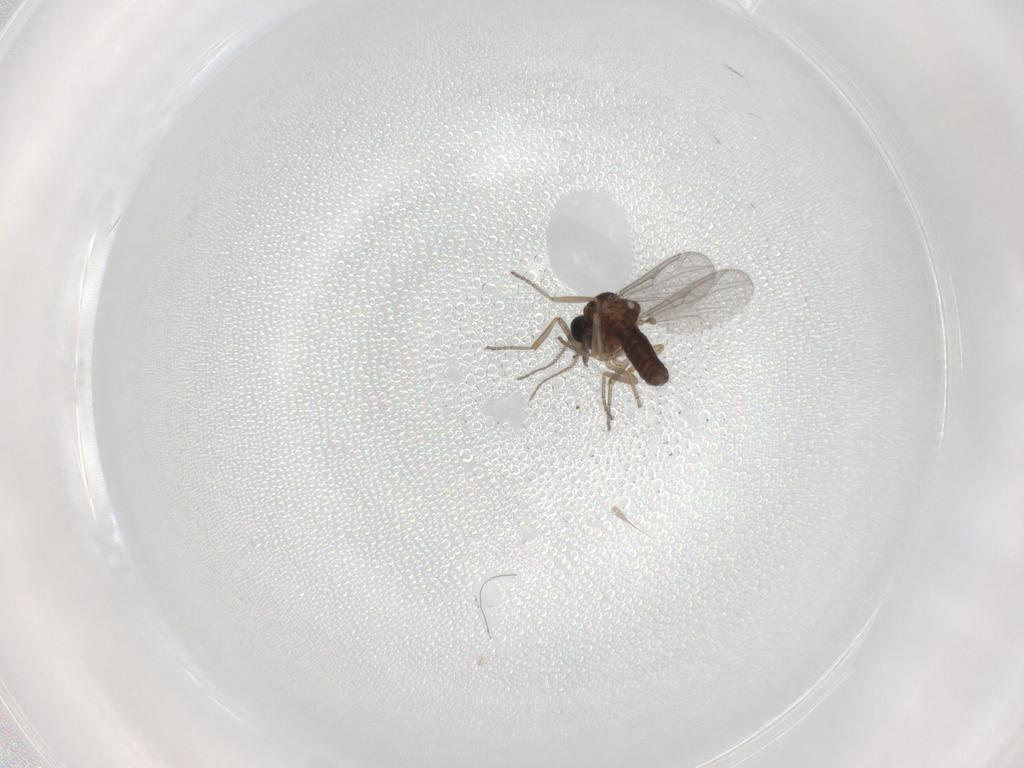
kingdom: Animalia
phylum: Arthropoda
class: Insecta
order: Diptera
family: Ceratopogonidae
